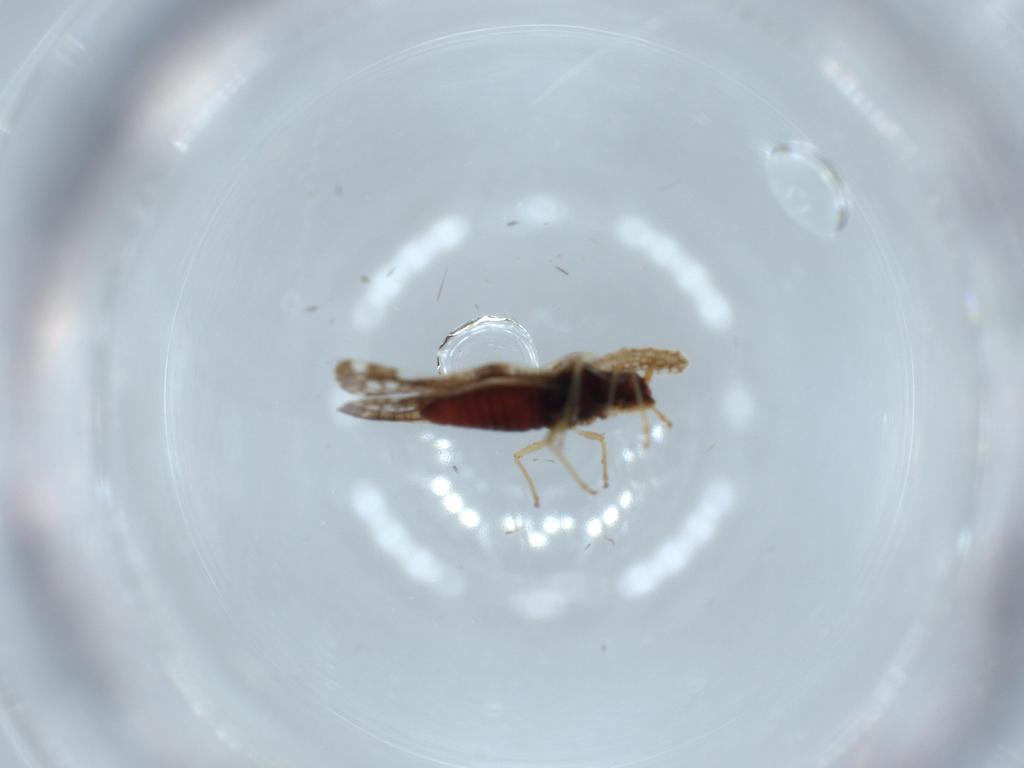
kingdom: Animalia
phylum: Arthropoda
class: Insecta
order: Hemiptera
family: Tingidae
